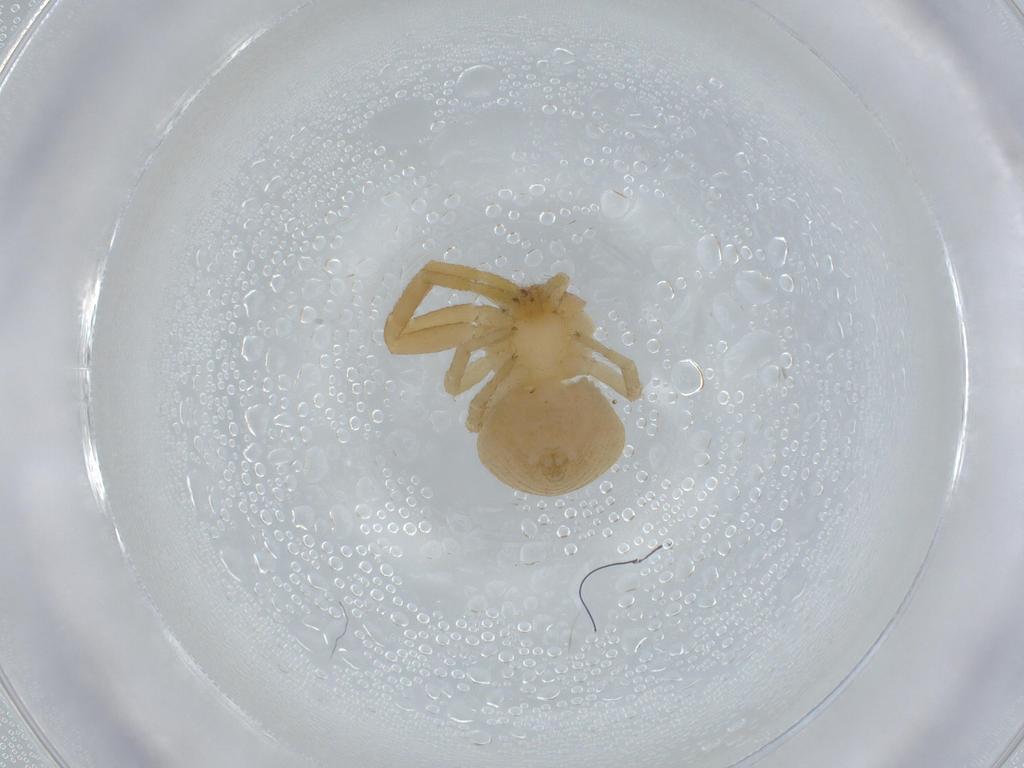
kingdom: Animalia
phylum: Arthropoda
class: Arachnida
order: Araneae
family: Thomisidae
